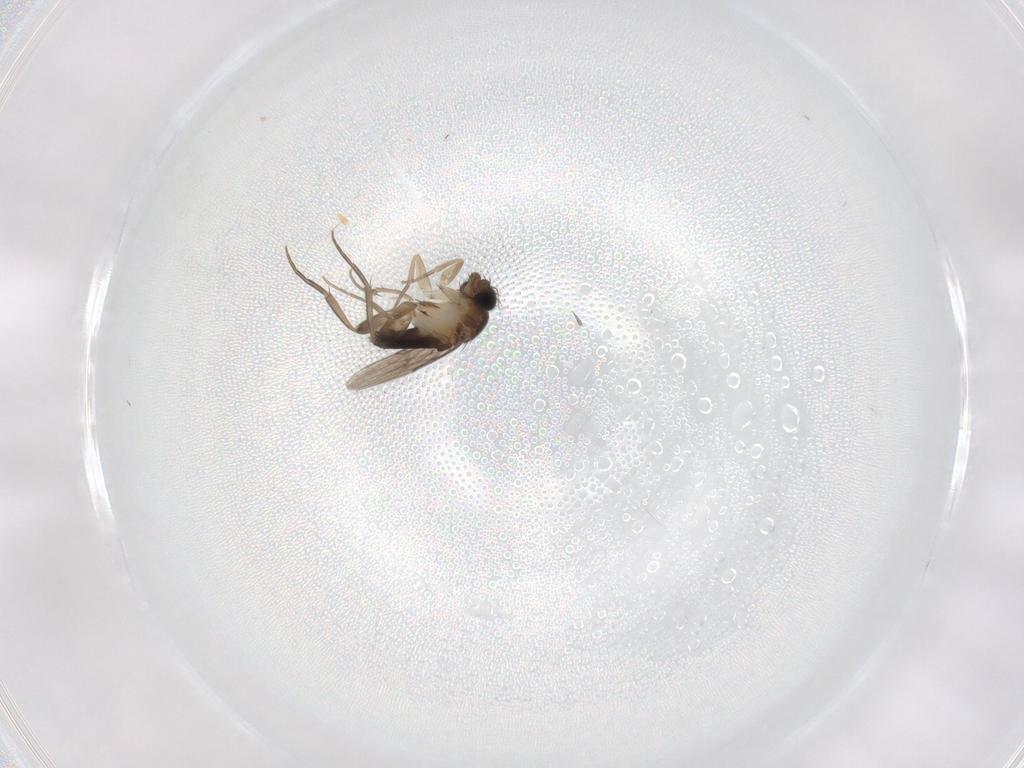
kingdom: Animalia
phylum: Arthropoda
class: Insecta
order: Diptera
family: Phoridae
